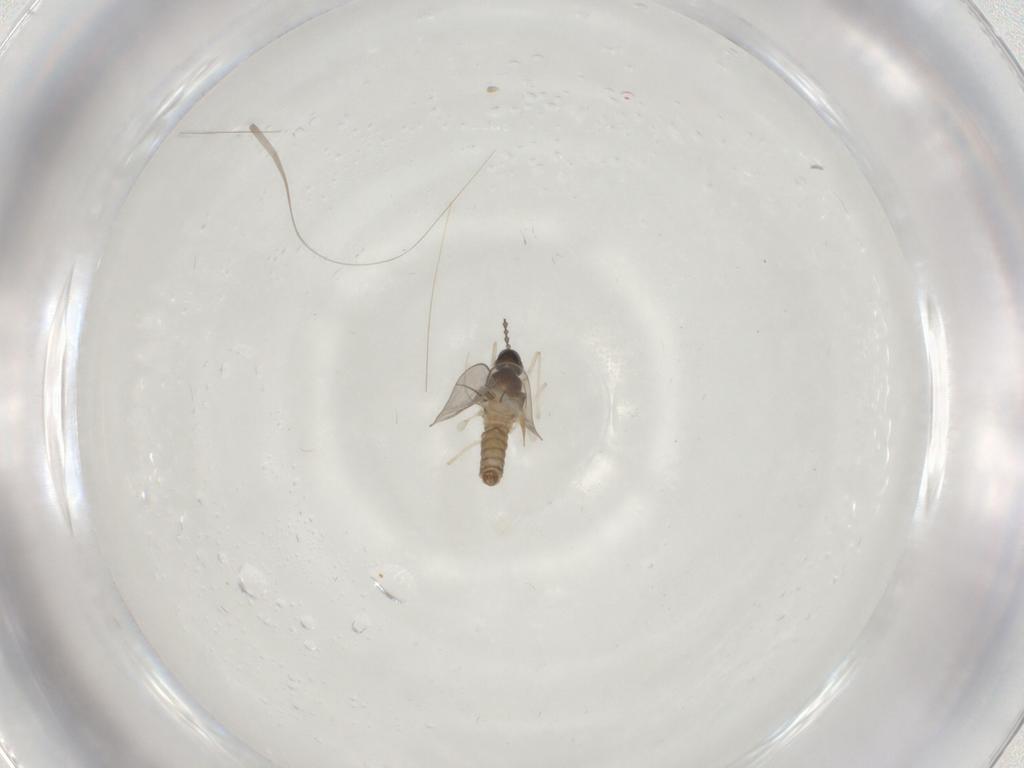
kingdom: Animalia
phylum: Arthropoda
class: Insecta
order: Diptera
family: Cecidomyiidae
